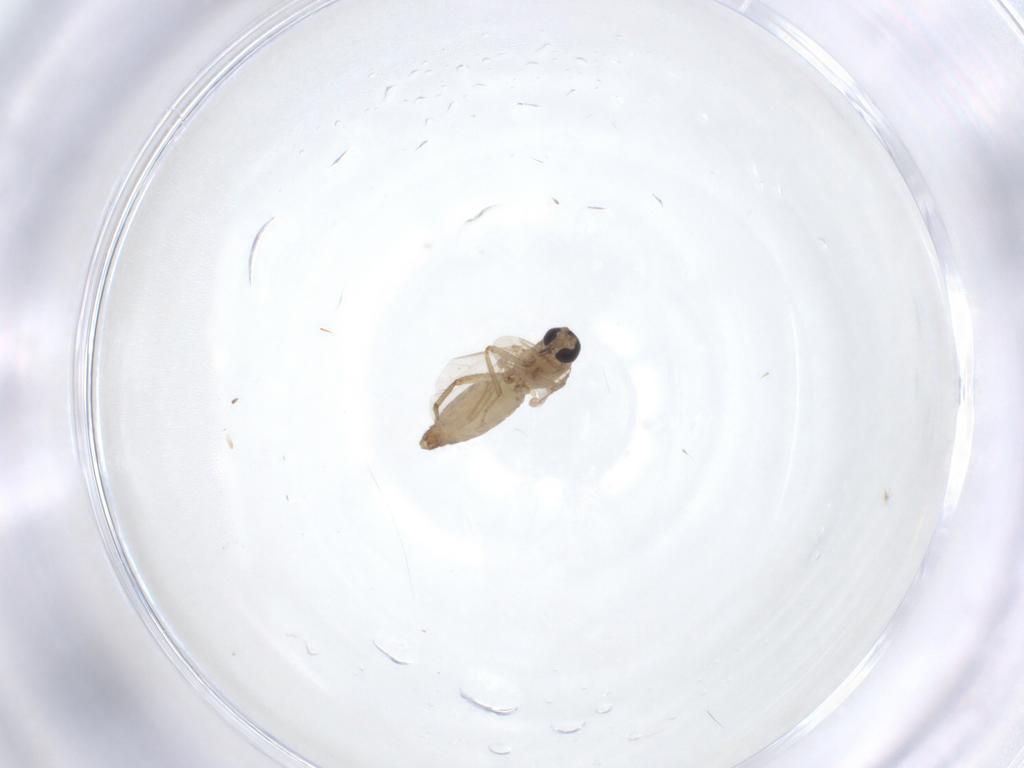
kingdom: Animalia
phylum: Arthropoda
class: Insecta
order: Diptera
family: Ceratopogonidae
